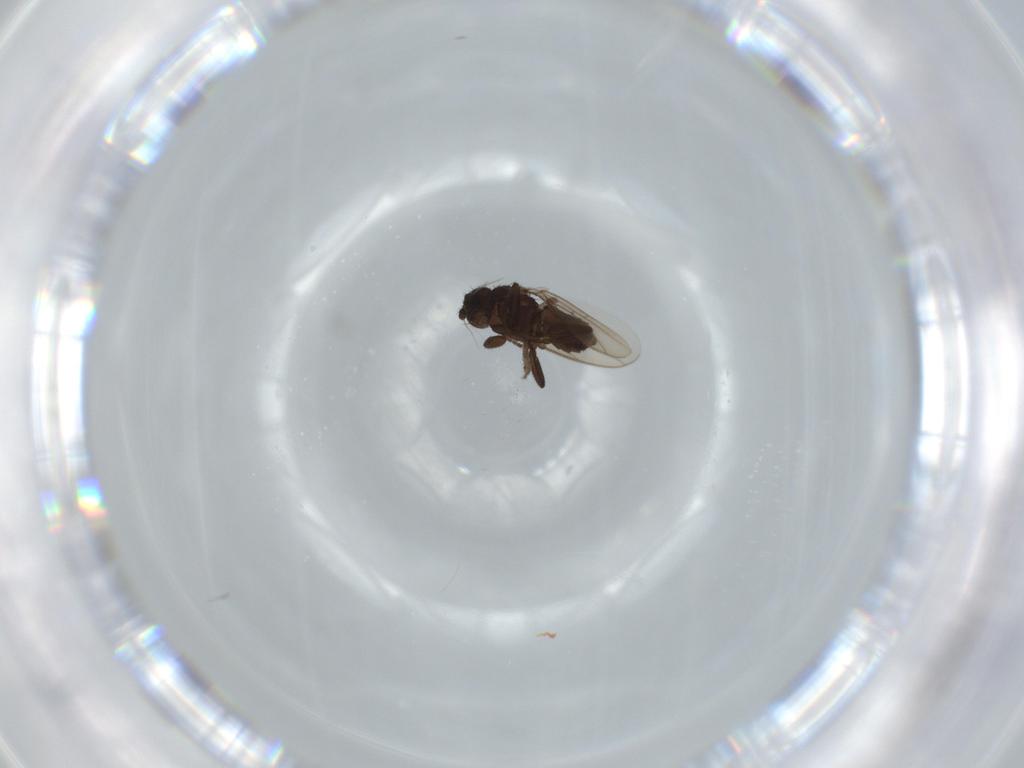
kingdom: Animalia
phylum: Arthropoda
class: Insecta
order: Diptera
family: Sphaeroceridae
